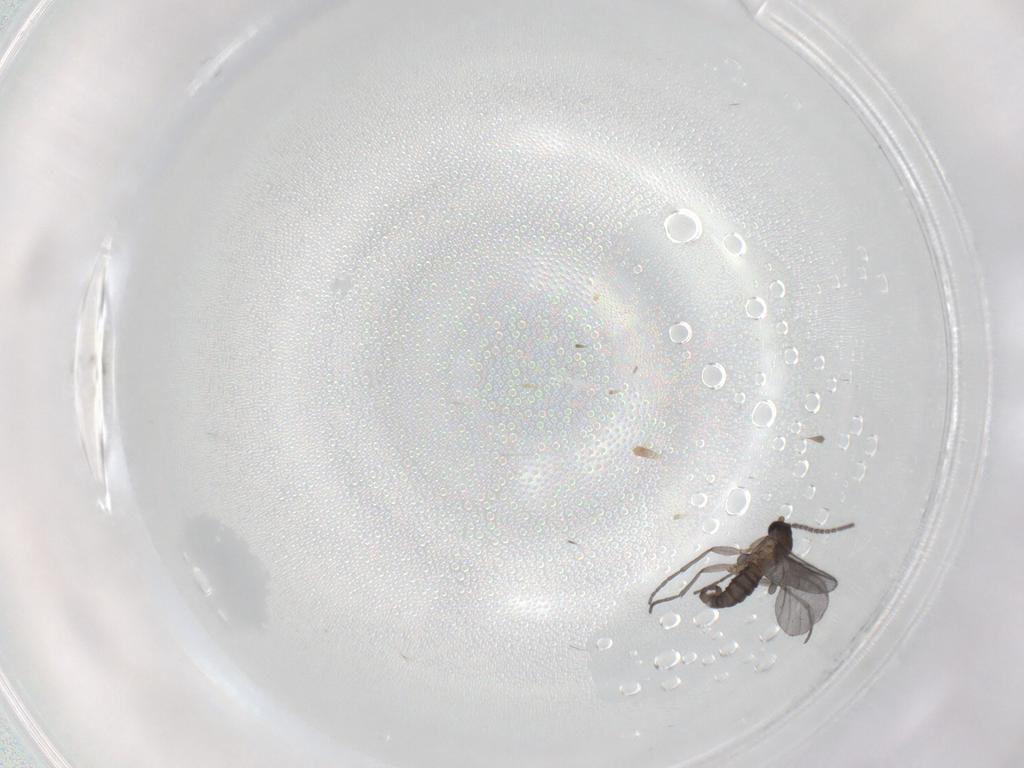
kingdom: Animalia
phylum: Arthropoda
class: Insecta
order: Diptera
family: Sciaridae
